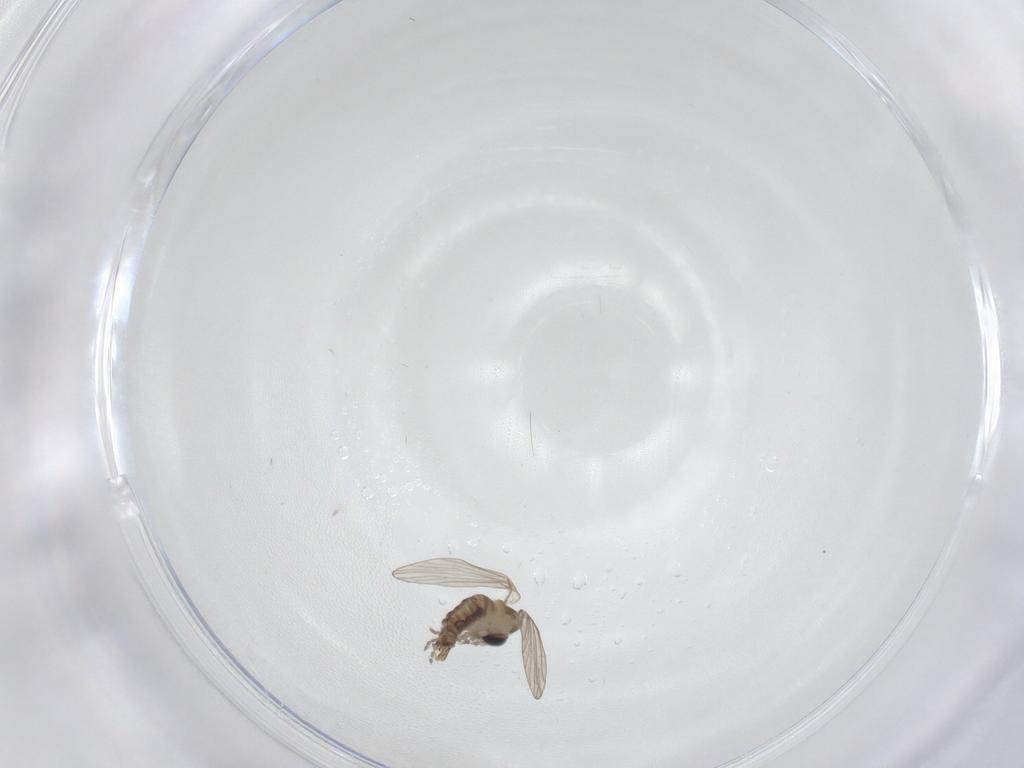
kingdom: Animalia
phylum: Arthropoda
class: Insecta
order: Diptera
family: Psychodidae
